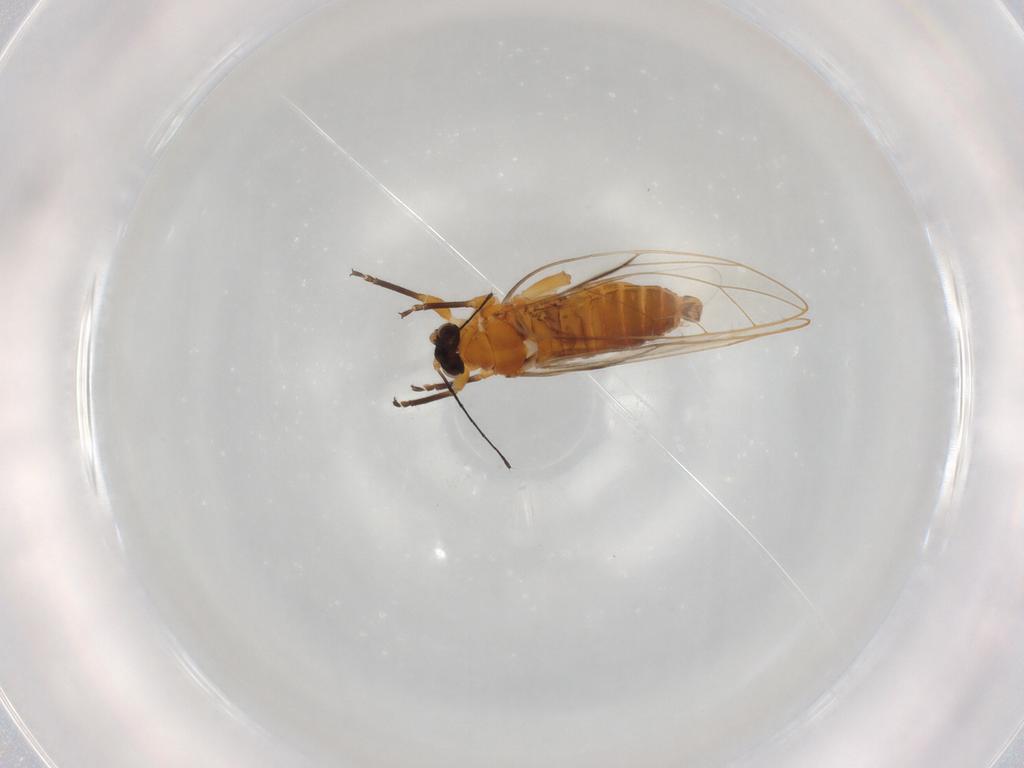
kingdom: Animalia
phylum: Arthropoda
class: Insecta
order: Hemiptera
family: Triozidae
